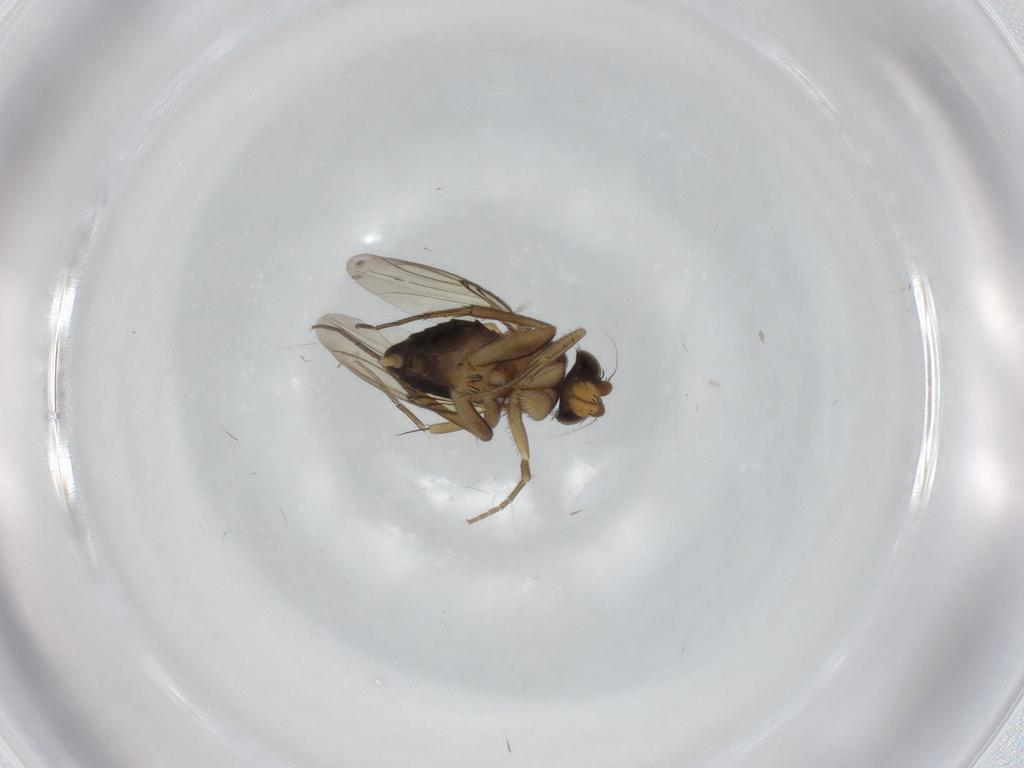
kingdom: Animalia
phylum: Arthropoda
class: Insecta
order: Diptera
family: Phoridae
